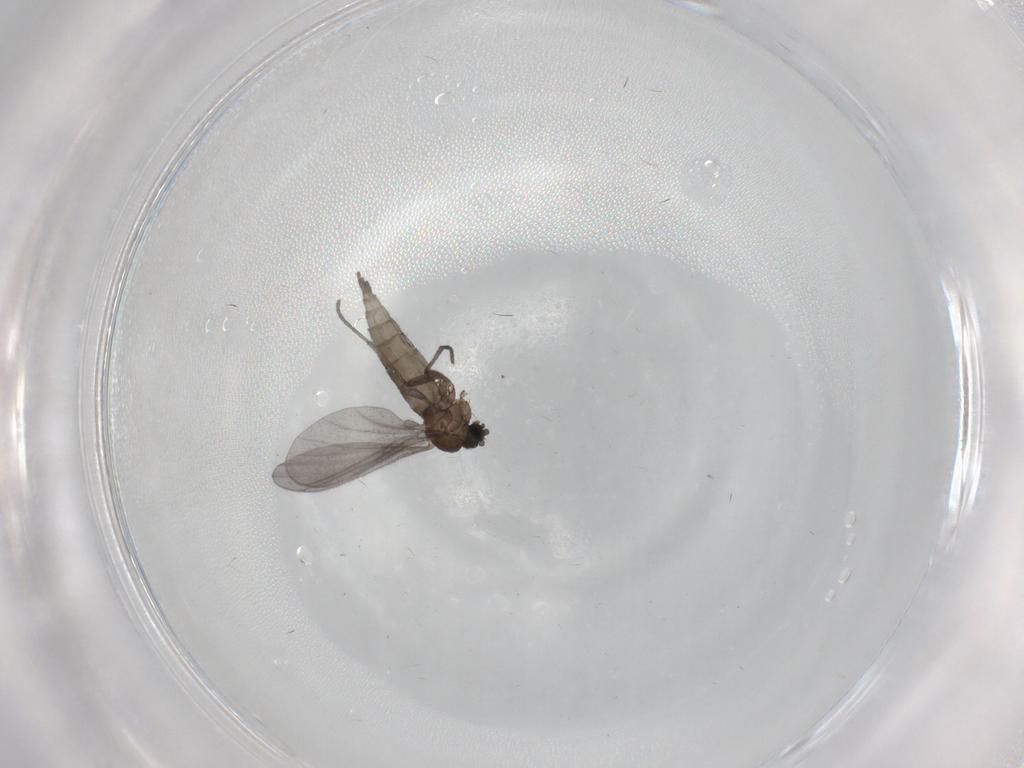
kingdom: Animalia
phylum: Arthropoda
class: Insecta
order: Diptera
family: Sciaridae
